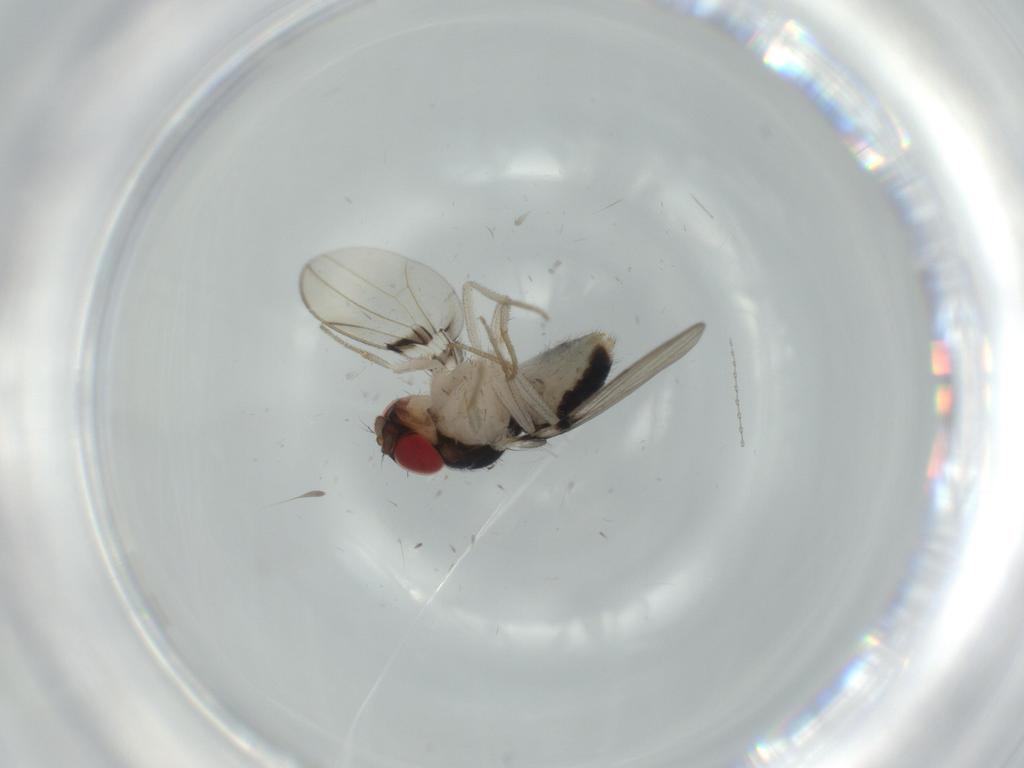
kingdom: Animalia
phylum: Arthropoda
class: Insecta
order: Diptera
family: Drosophilidae
